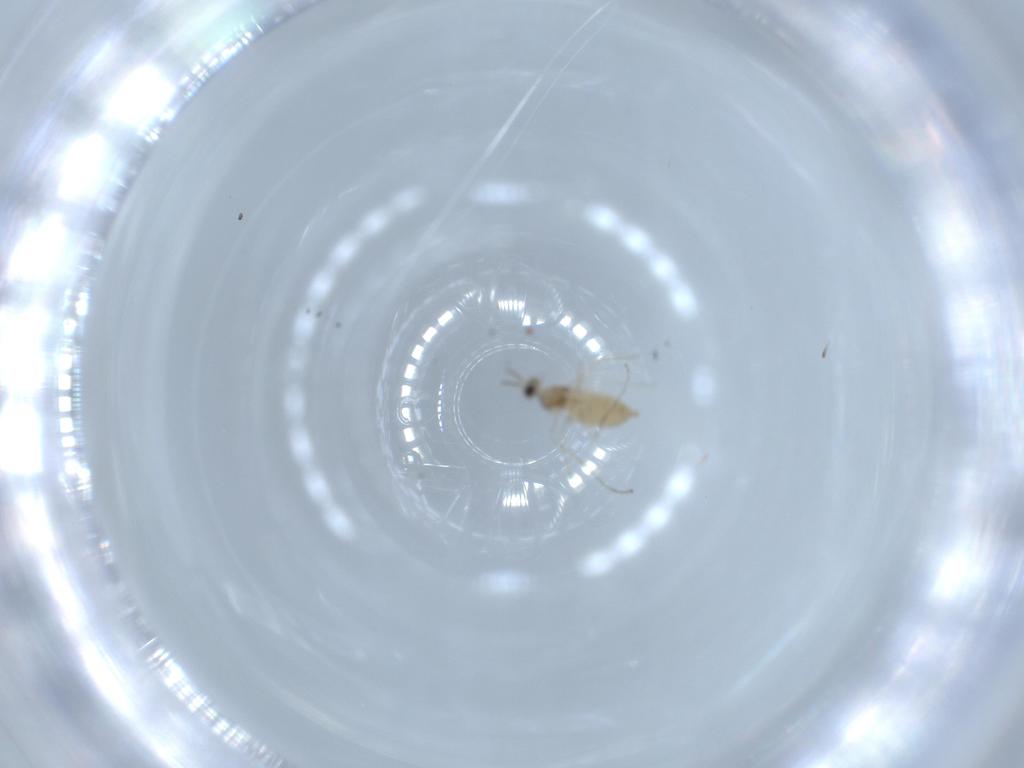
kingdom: Animalia
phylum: Arthropoda
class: Insecta
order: Diptera
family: Cecidomyiidae
